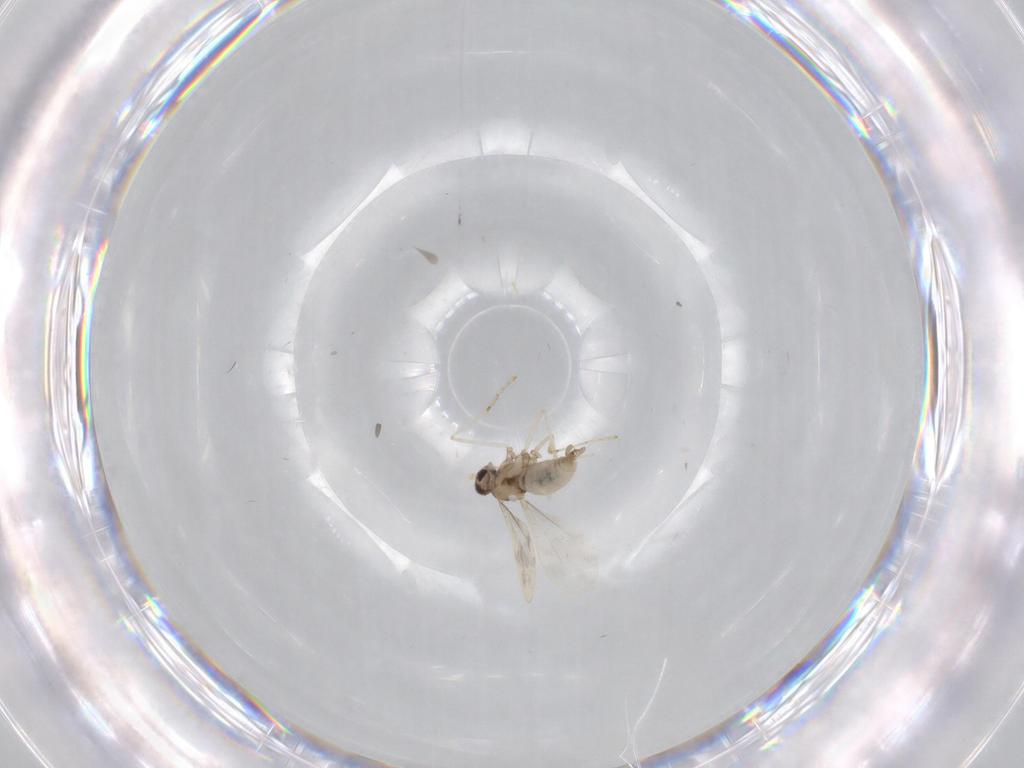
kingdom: Animalia
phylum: Arthropoda
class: Insecta
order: Diptera
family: Cecidomyiidae
